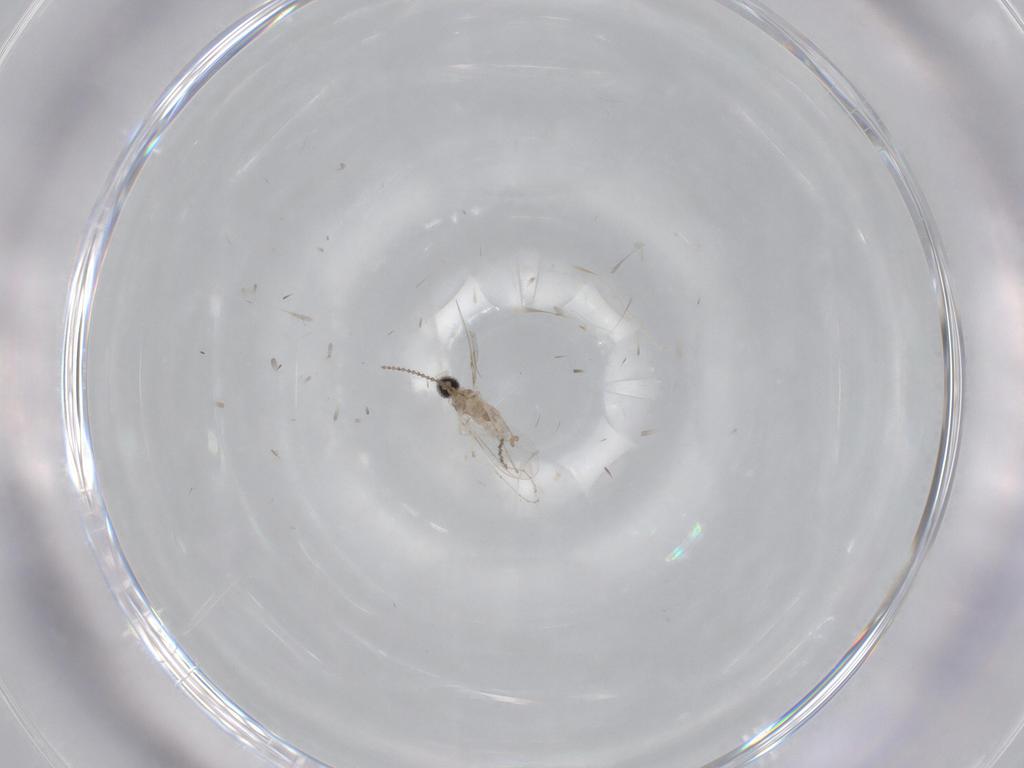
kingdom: Animalia
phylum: Arthropoda
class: Insecta
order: Diptera
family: Cecidomyiidae
